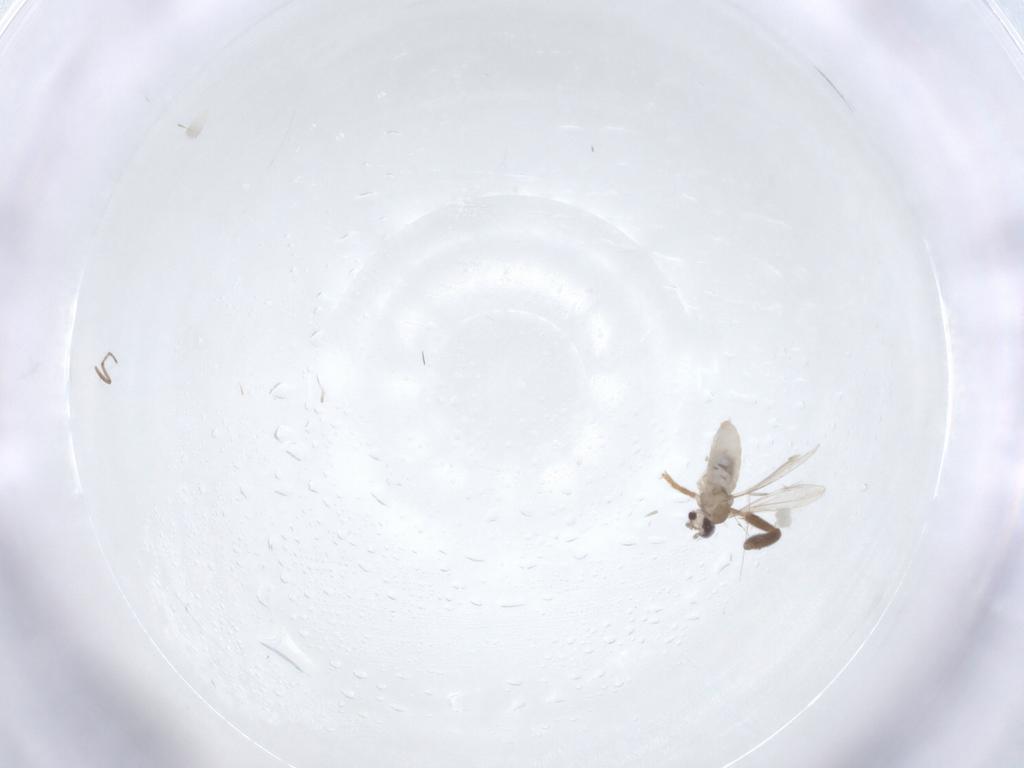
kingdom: Animalia
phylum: Arthropoda
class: Insecta
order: Diptera
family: Ceratopogonidae
